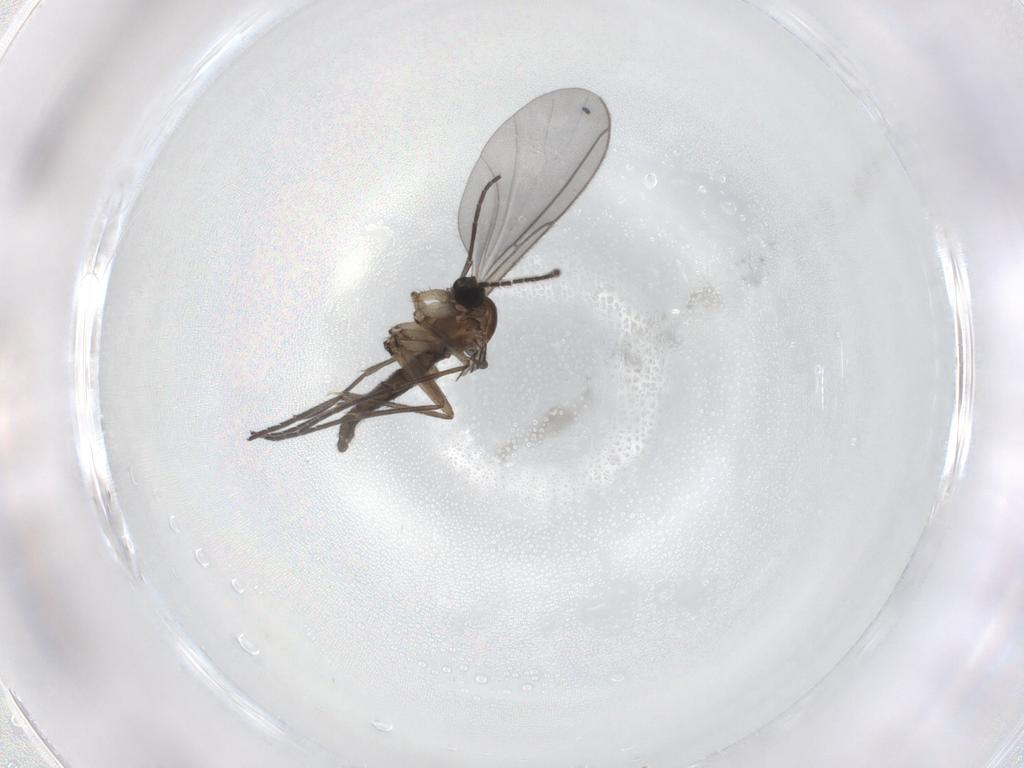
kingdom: Animalia
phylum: Arthropoda
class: Insecta
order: Diptera
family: Sciaridae
